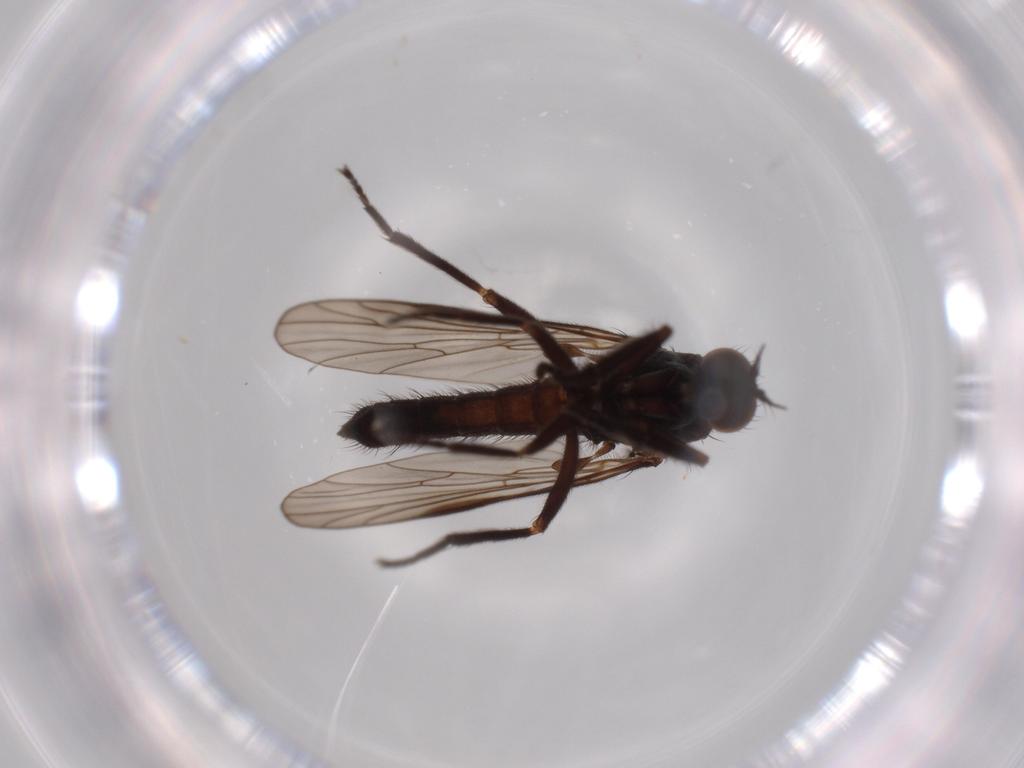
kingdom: Animalia
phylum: Arthropoda
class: Insecta
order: Diptera
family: Empididae
